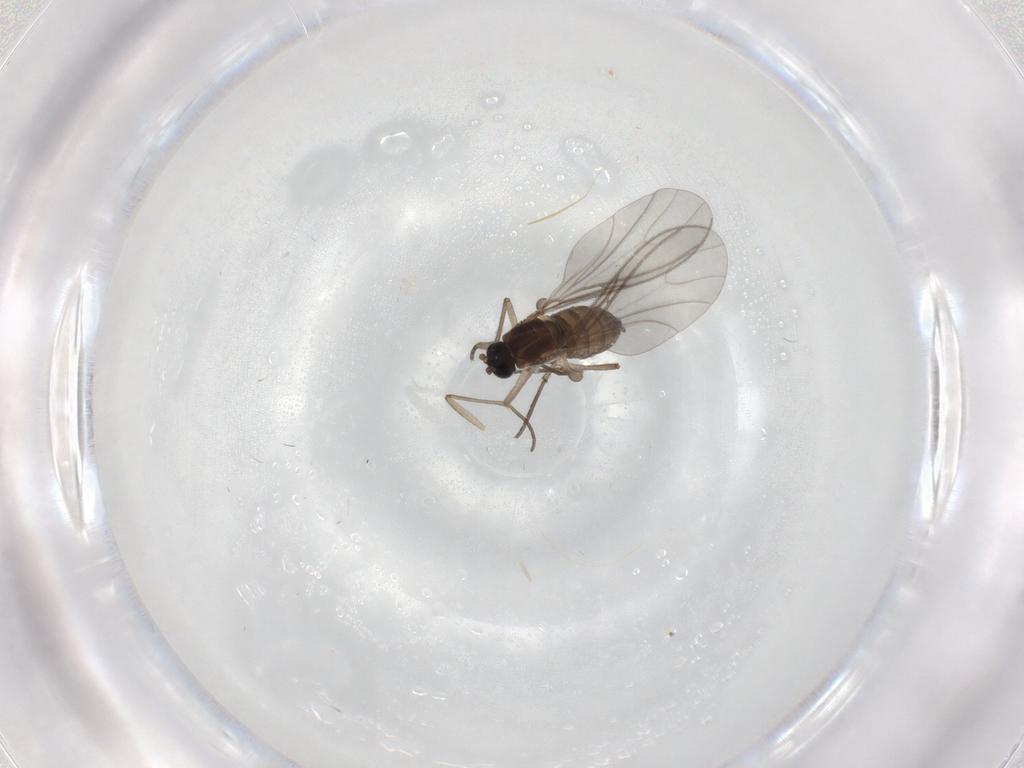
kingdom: Animalia
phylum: Arthropoda
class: Insecta
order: Diptera
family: Sciaridae
